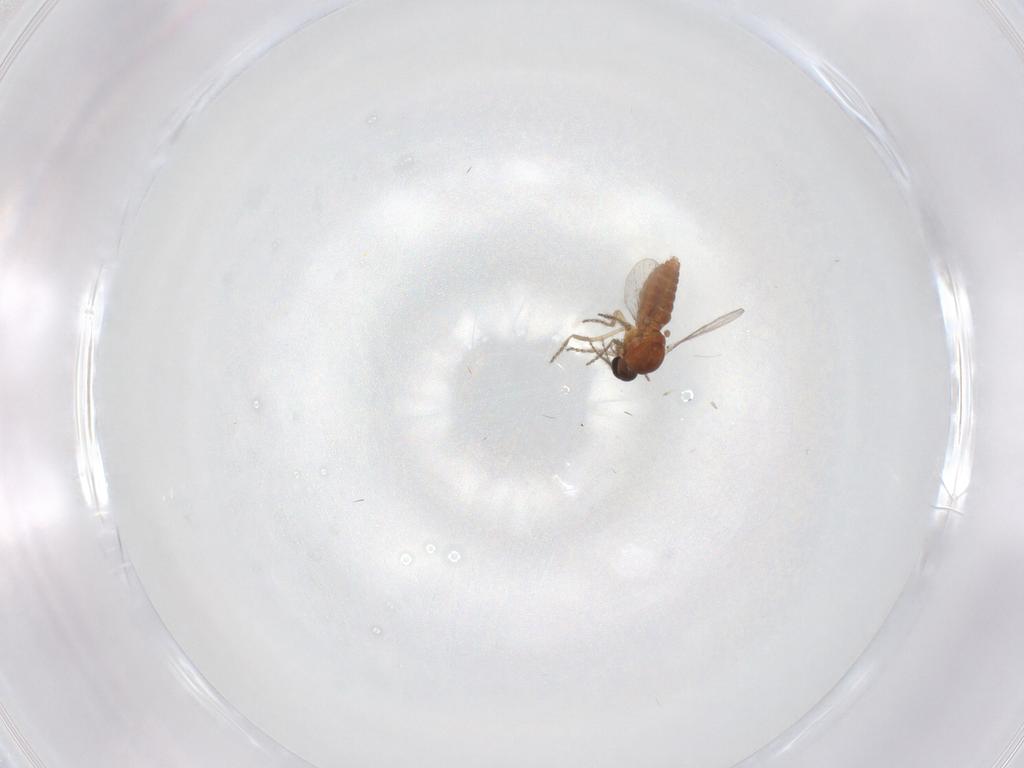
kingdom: Animalia
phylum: Arthropoda
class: Insecta
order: Diptera
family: Ceratopogonidae
